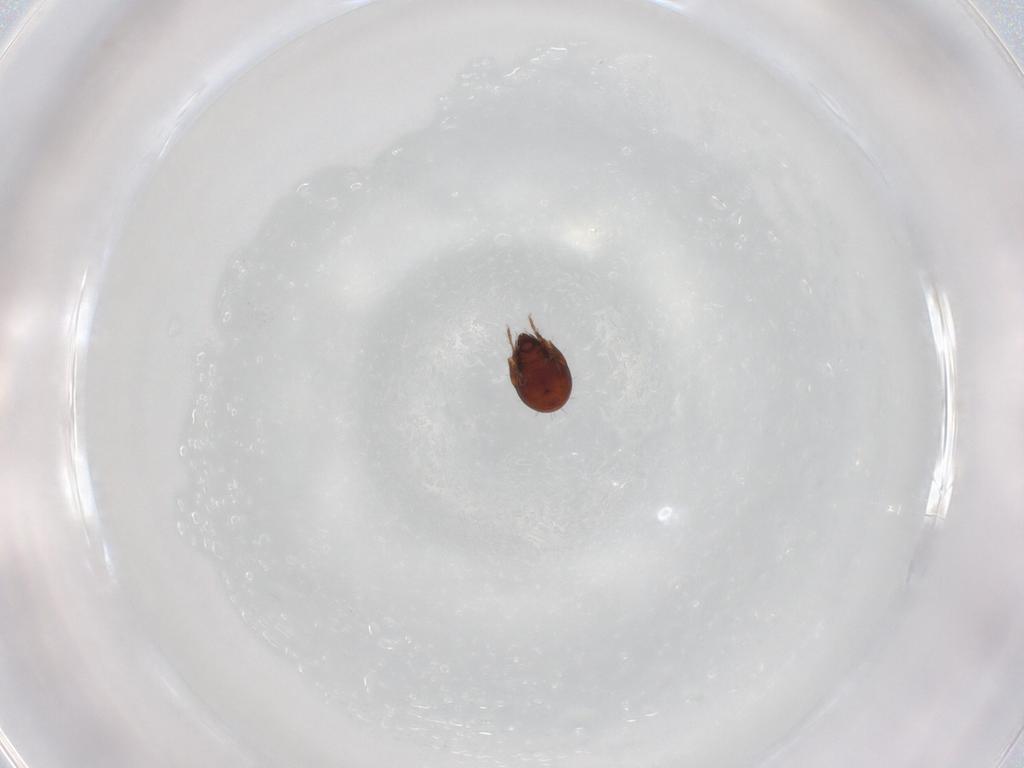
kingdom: Animalia
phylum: Arthropoda
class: Arachnida
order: Sarcoptiformes
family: Humerobatidae
